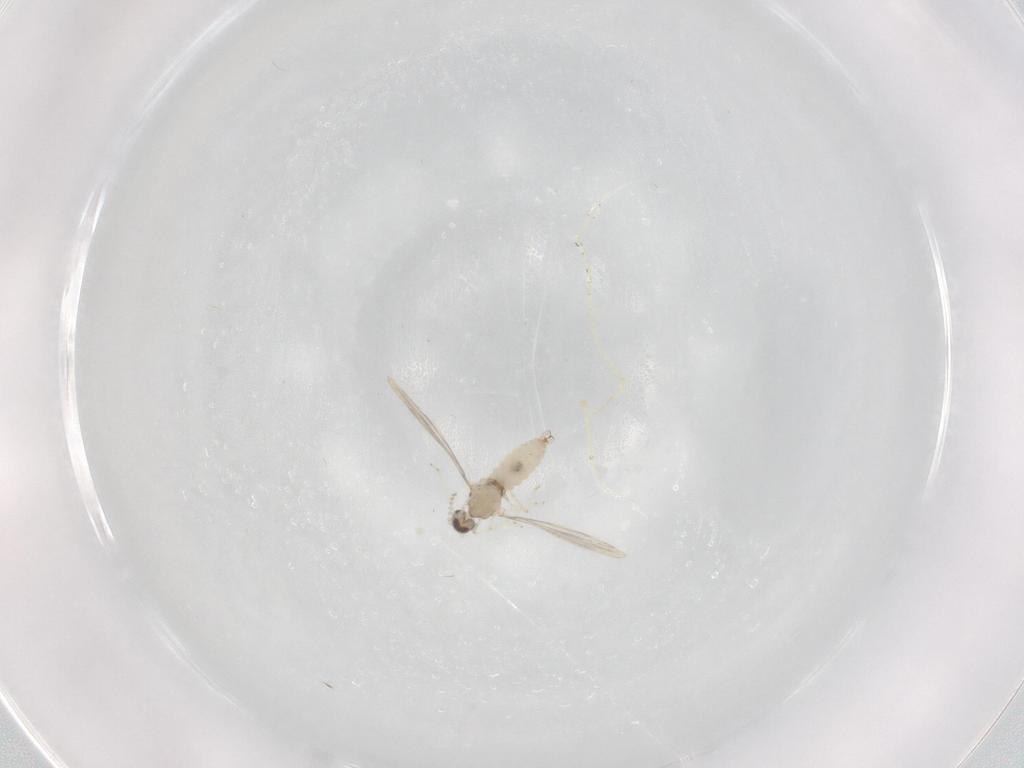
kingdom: Animalia
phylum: Arthropoda
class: Insecta
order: Diptera
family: Cecidomyiidae
